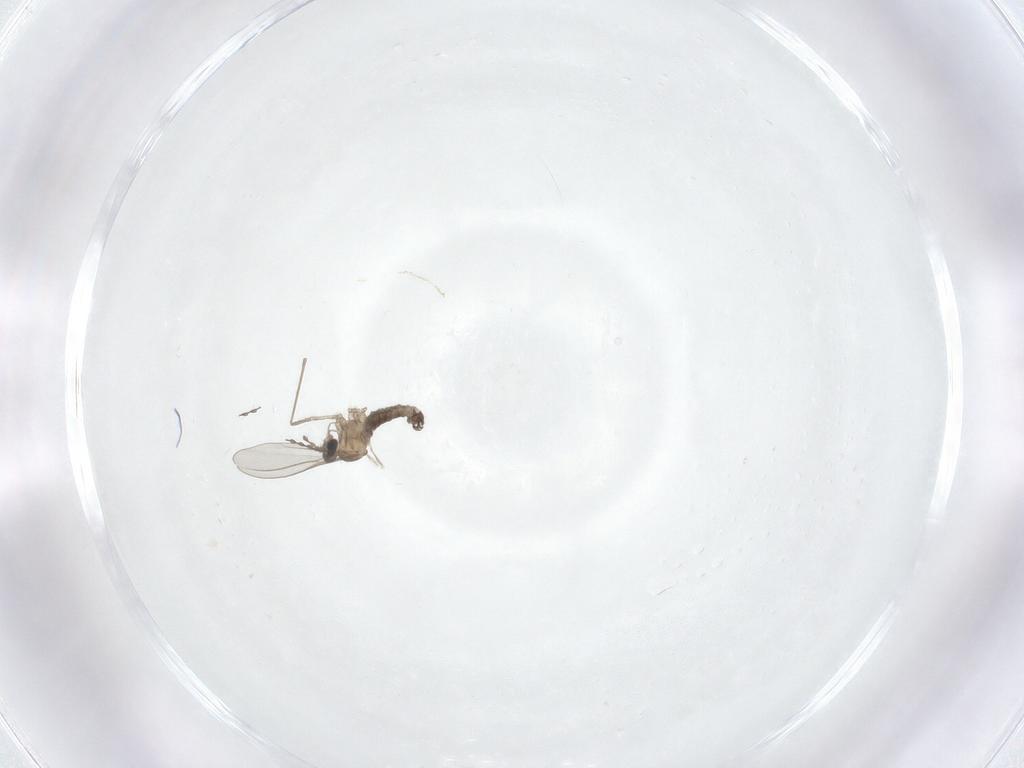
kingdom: Animalia
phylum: Arthropoda
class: Insecta
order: Diptera
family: Cecidomyiidae
